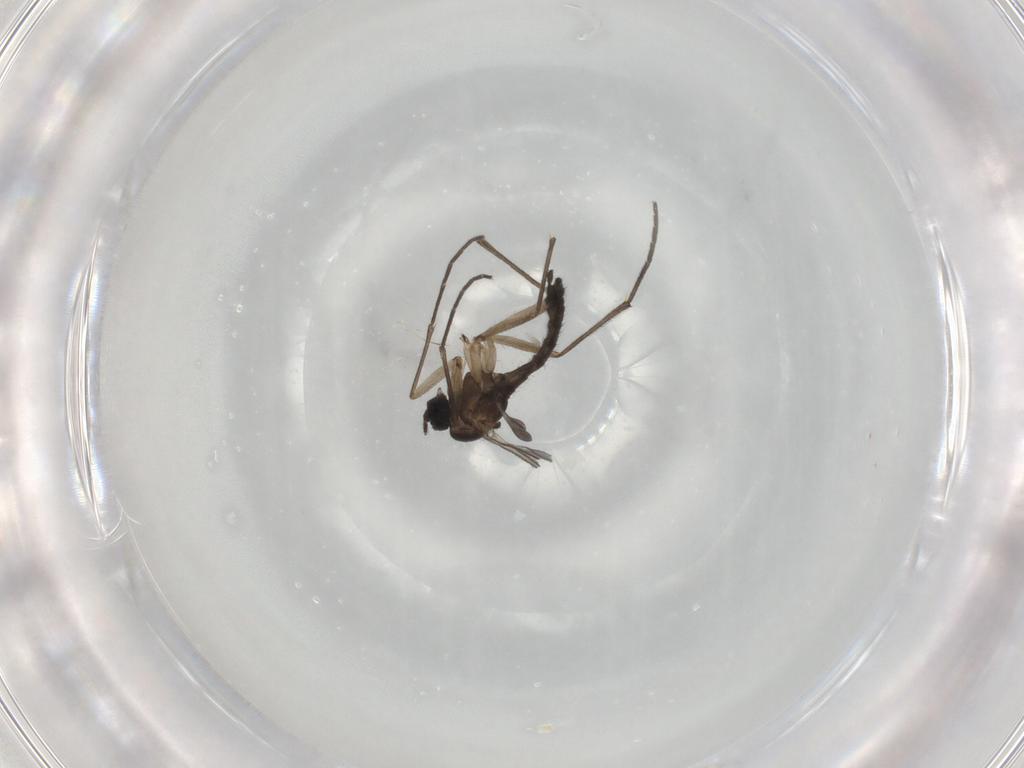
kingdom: Animalia
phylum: Arthropoda
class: Insecta
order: Diptera
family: Sciaridae
